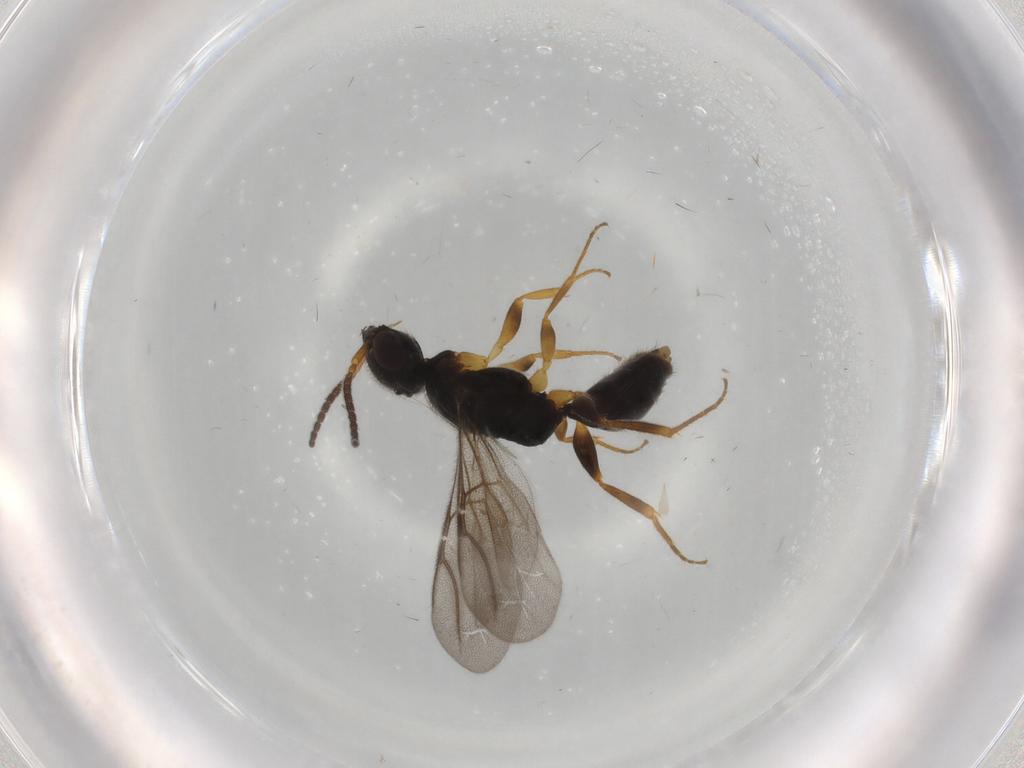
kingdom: Animalia
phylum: Arthropoda
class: Insecta
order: Hymenoptera
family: Bethylidae
